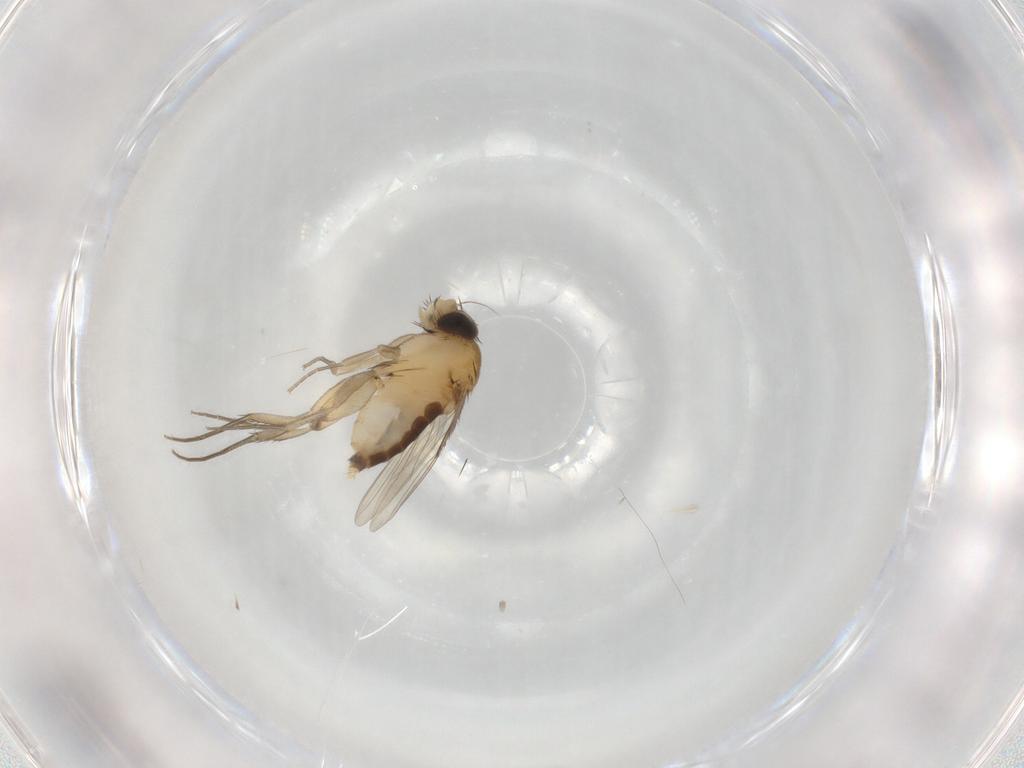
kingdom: Animalia
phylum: Arthropoda
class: Insecta
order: Diptera
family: Phoridae
